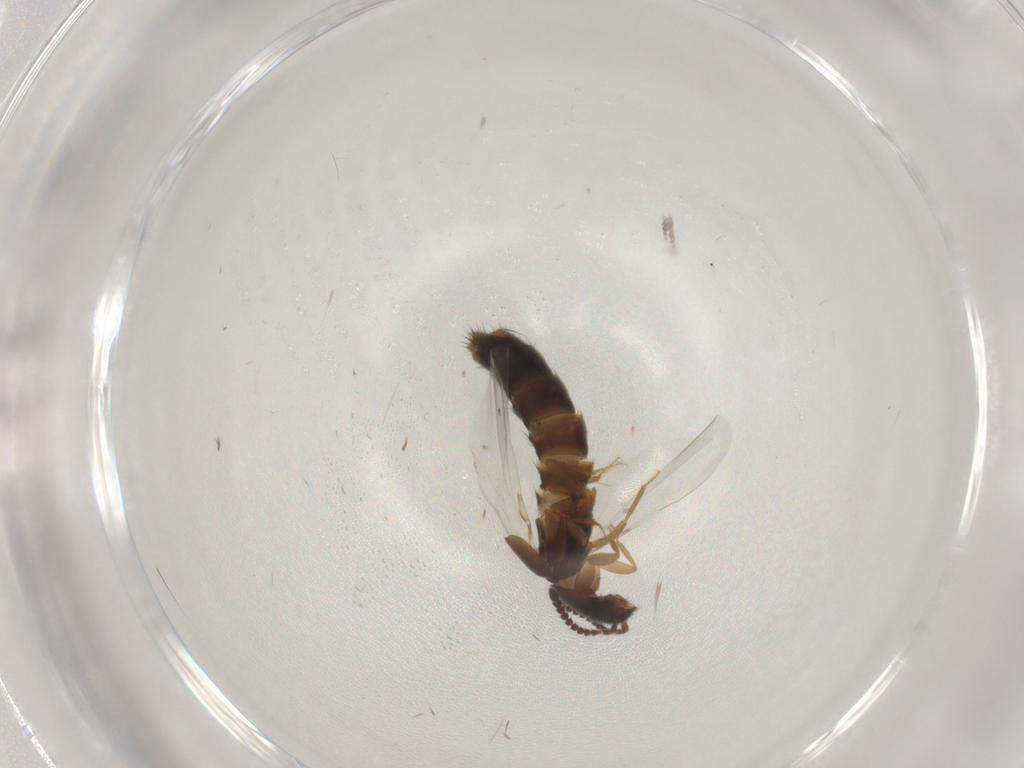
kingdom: Animalia
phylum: Arthropoda
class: Insecta
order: Coleoptera
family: Staphylinidae
